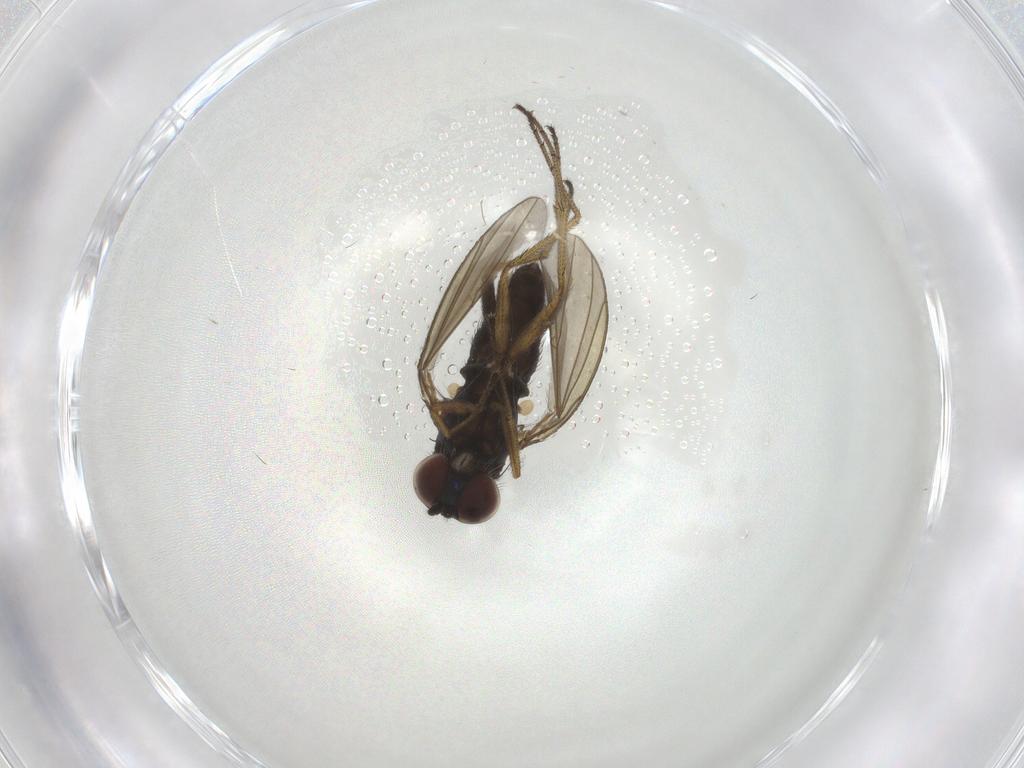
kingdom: Animalia
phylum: Arthropoda
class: Insecta
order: Diptera
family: Dolichopodidae
